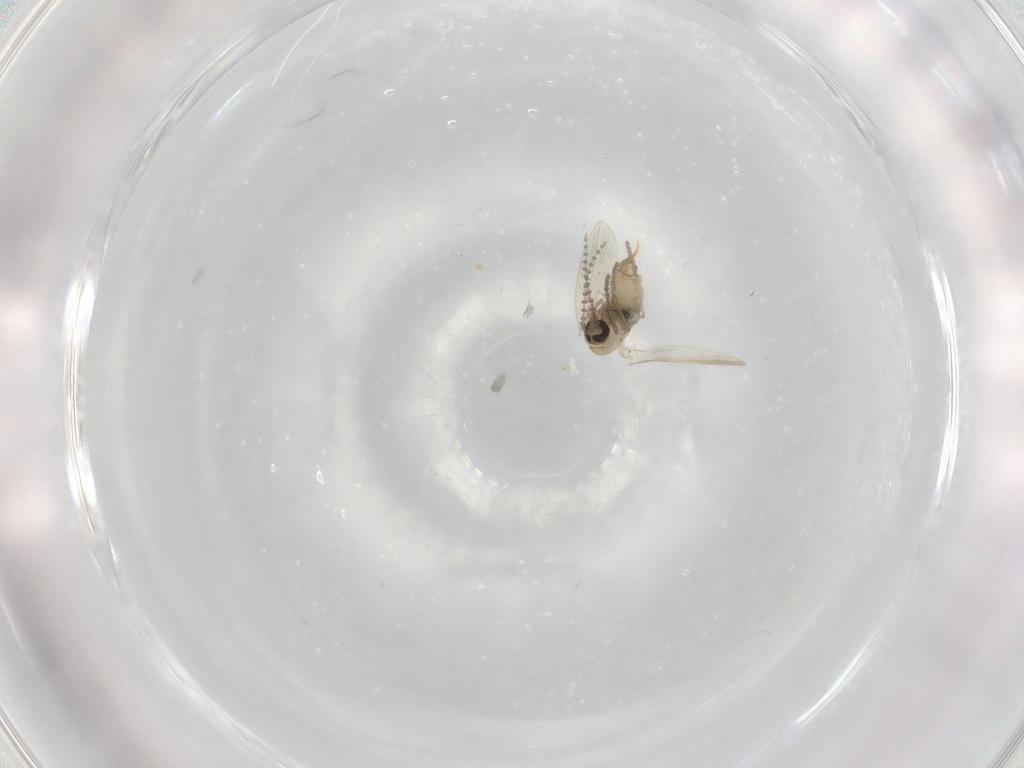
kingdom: Animalia
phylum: Arthropoda
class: Insecta
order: Diptera
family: Psychodidae
